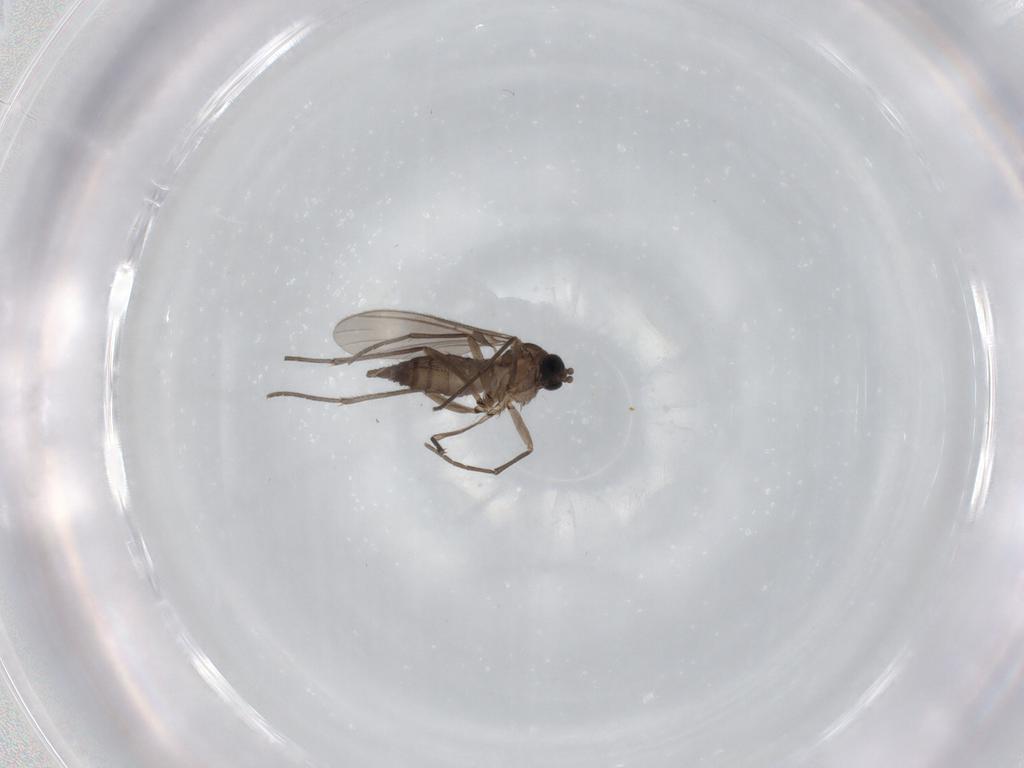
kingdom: Animalia
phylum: Arthropoda
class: Insecta
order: Diptera
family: Sciaridae
